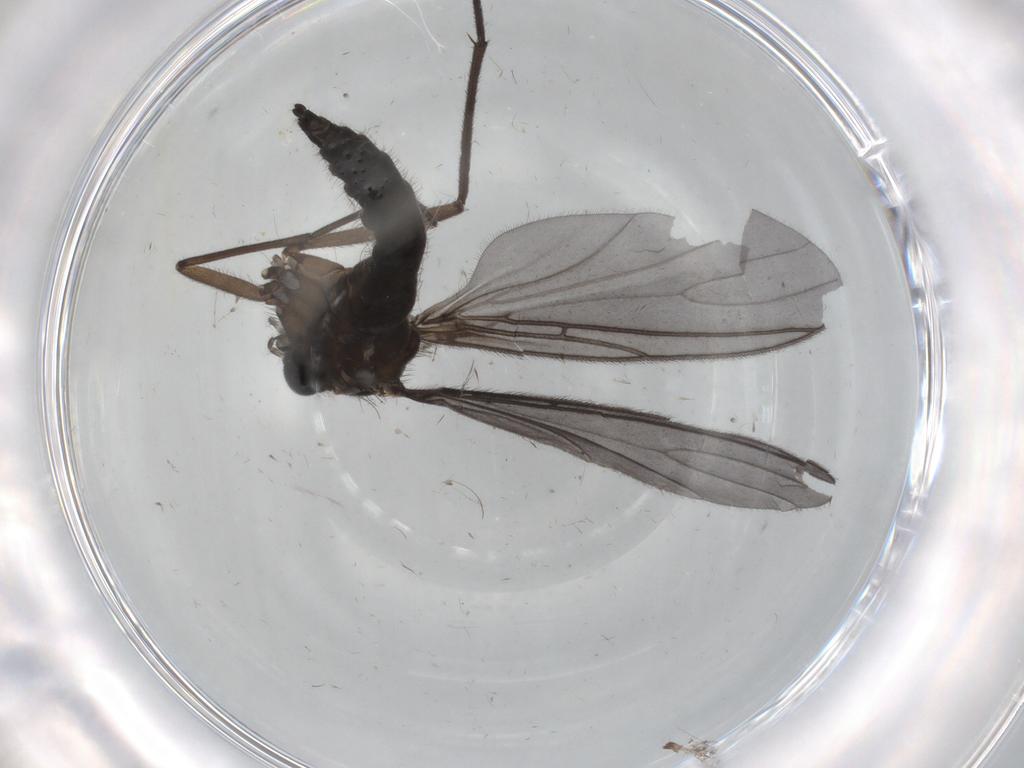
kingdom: Animalia
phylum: Arthropoda
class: Insecta
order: Diptera
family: Sciaridae
